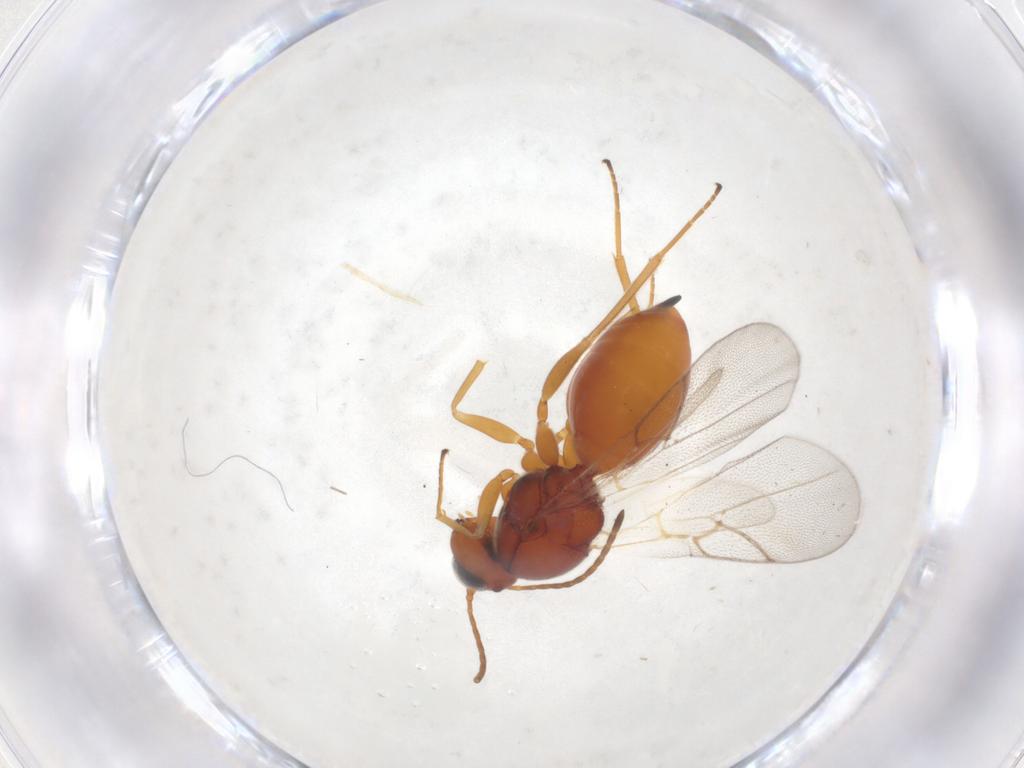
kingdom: Animalia
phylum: Arthropoda
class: Insecta
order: Hymenoptera
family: Figitidae
